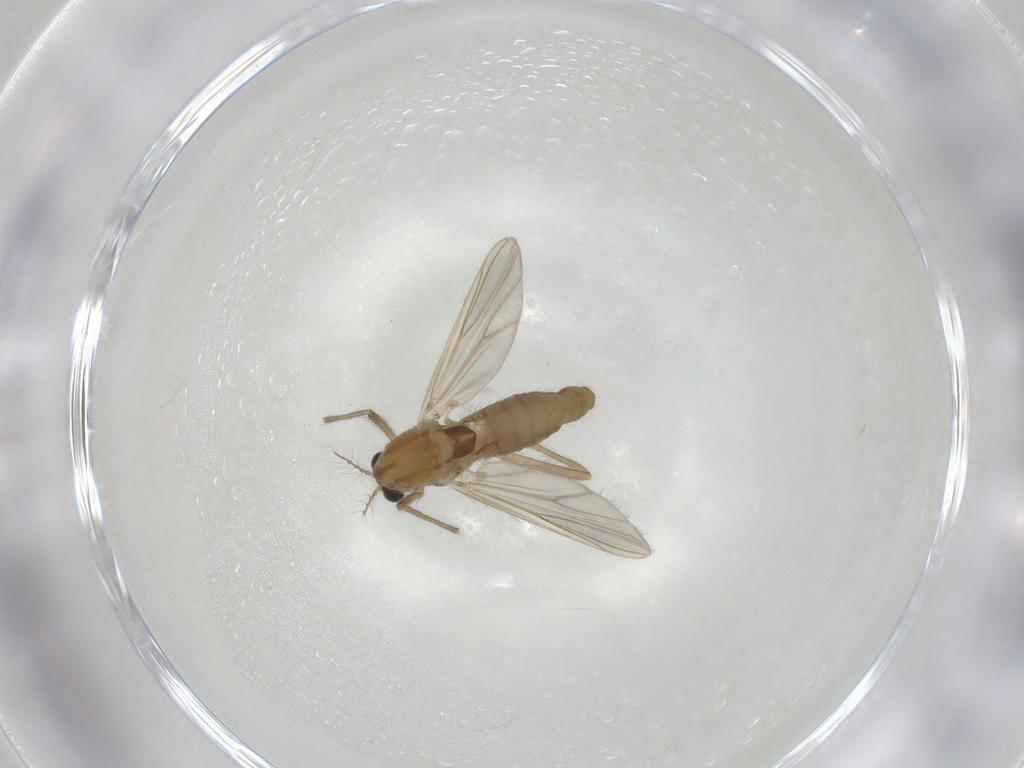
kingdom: Animalia
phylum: Arthropoda
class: Insecta
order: Diptera
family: Chironomidae
